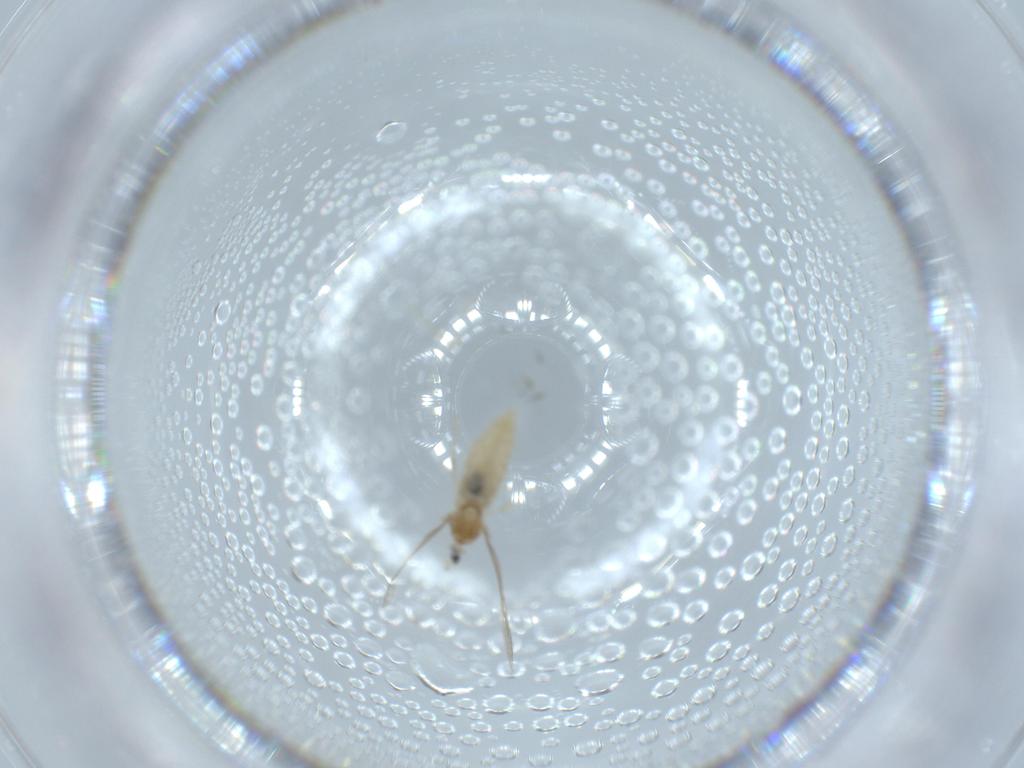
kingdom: Animalia
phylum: Arthropoda
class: Insecta
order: Diptera
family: Cecidomyiidae
